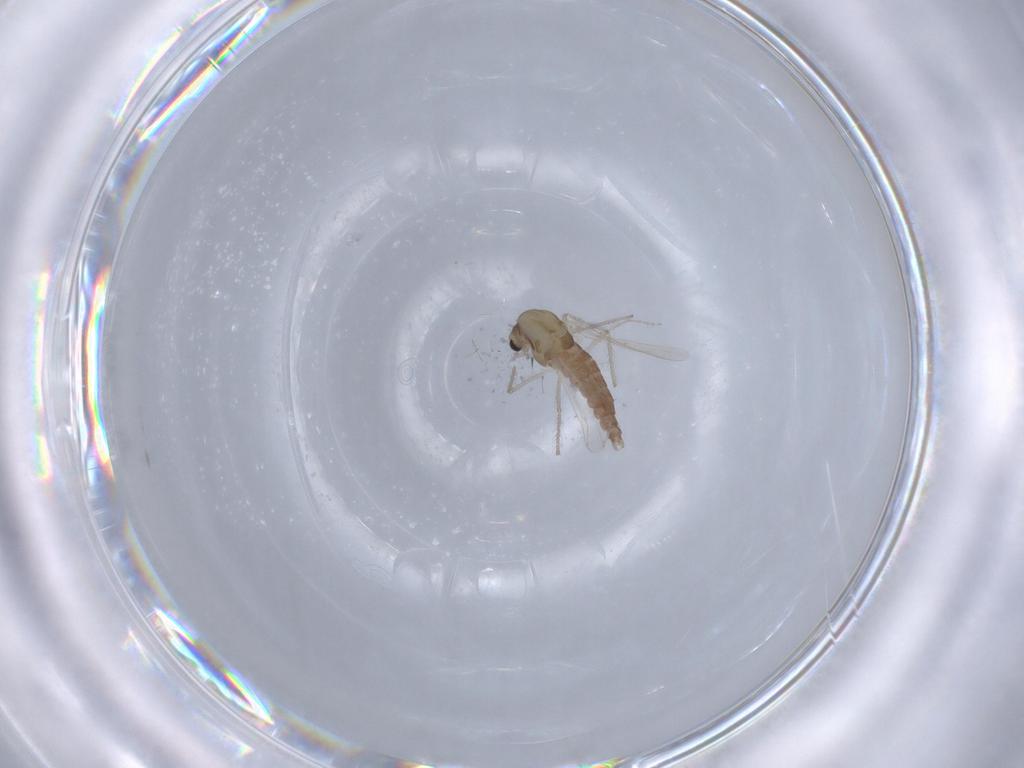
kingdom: Animalia
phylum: Arthropoda
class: Insecta
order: Diptera
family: Chironomidae
